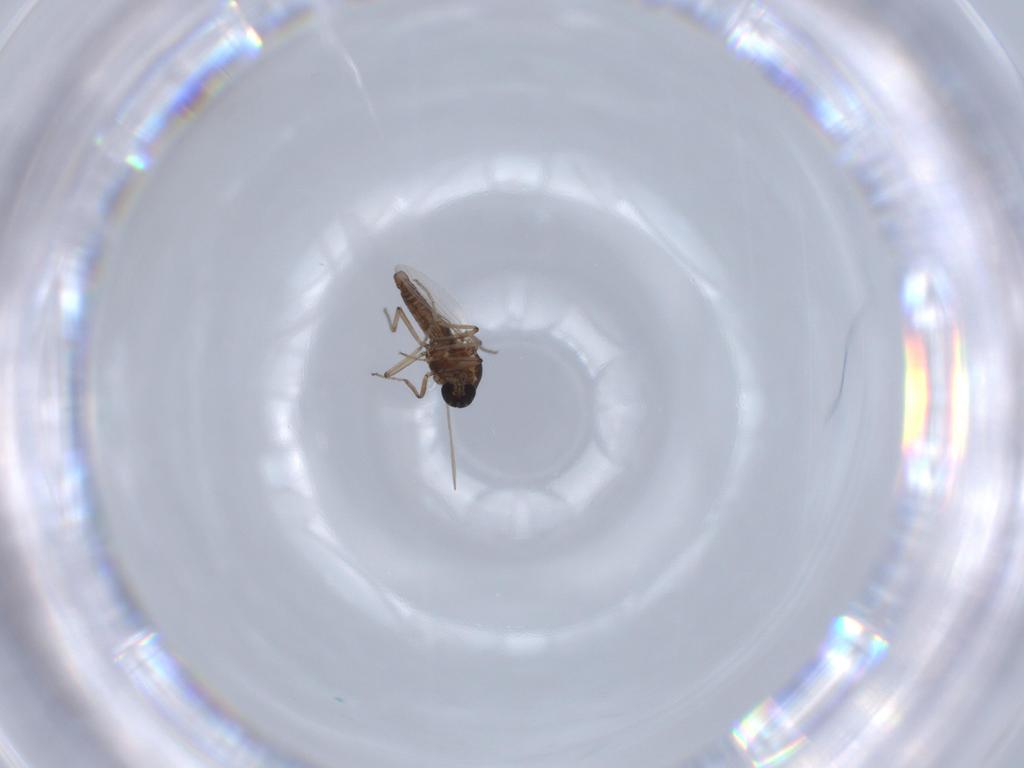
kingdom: Animalia
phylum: Arthropoda
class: Insecta
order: Diptera
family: Ceratopogonidae
